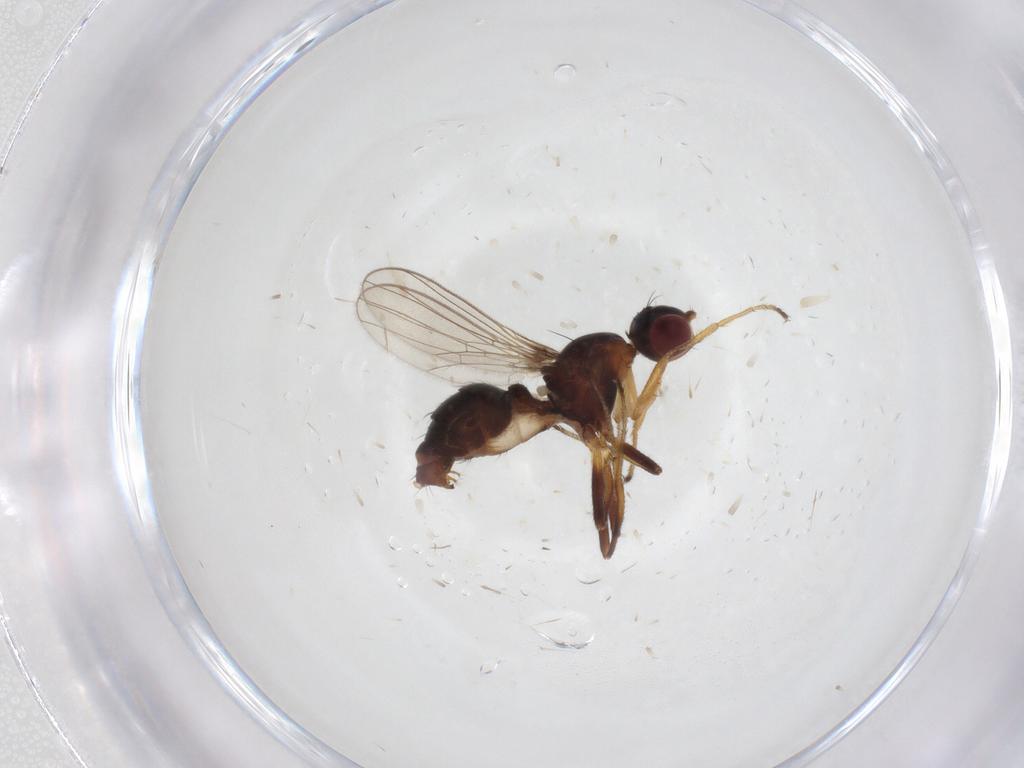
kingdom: Animalia
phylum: Arthropoda
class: Insecta
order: Diptera
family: Sepsidae
